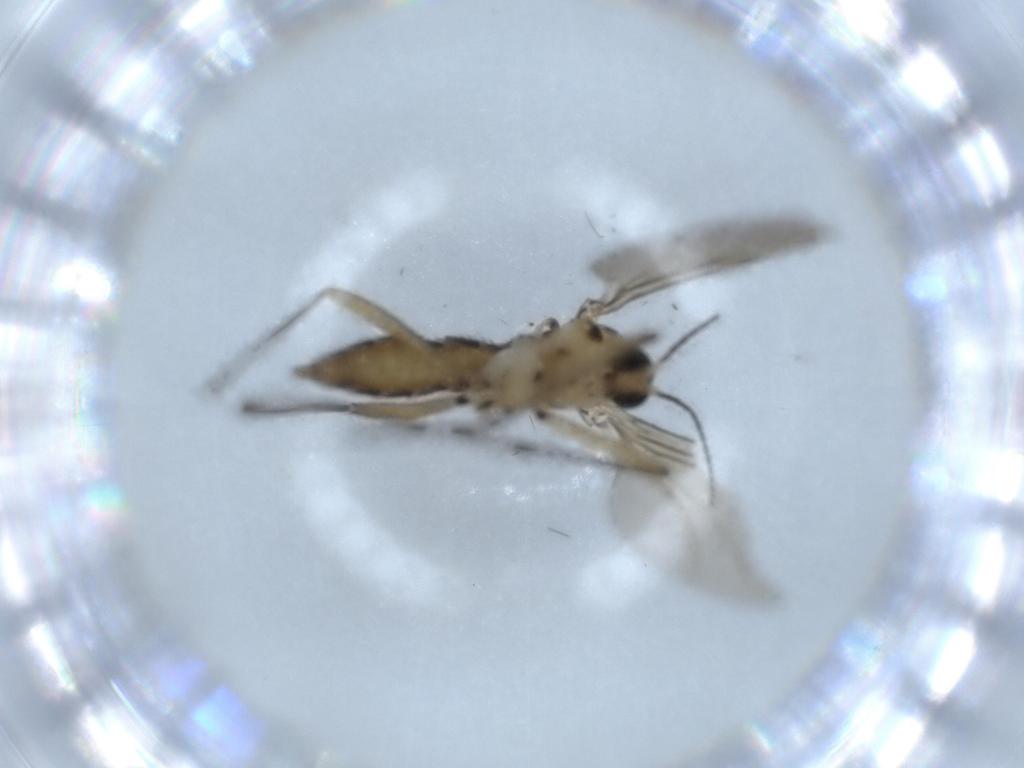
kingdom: Animalia
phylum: Arthropoda
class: Insecta
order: Diptera
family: Sciaridae
